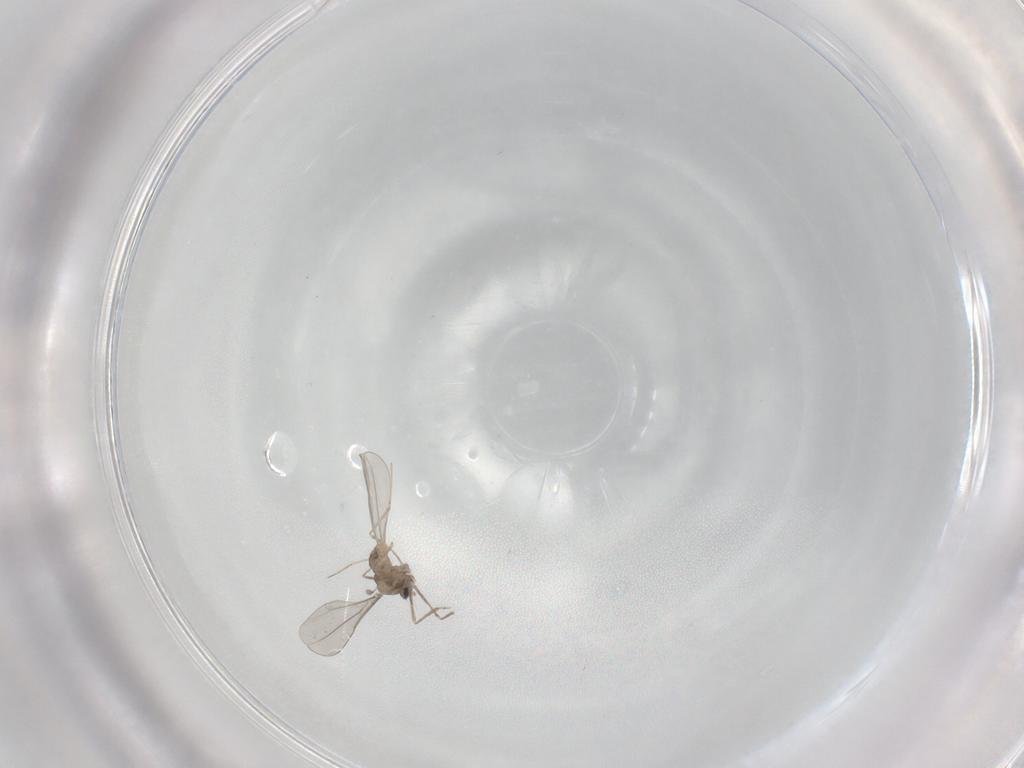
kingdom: Animalia
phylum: Arthropoda
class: Insecta
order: Diptera
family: Cecidomyiidae
